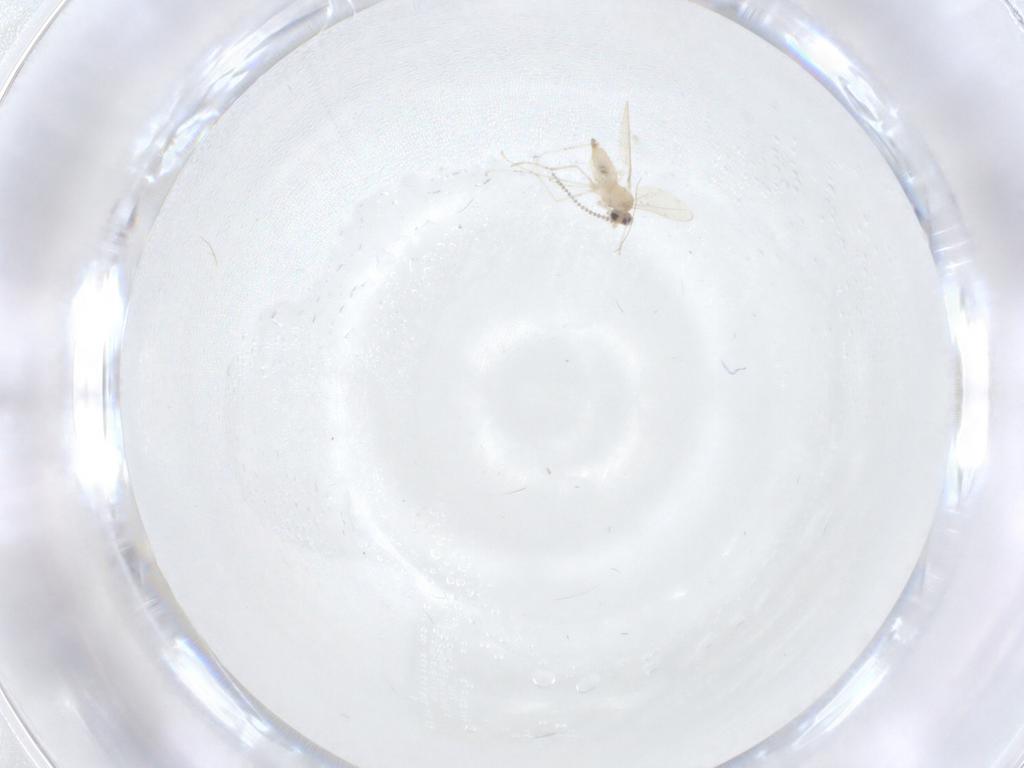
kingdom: Animalia
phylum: Arthropoda
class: Insecta
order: Diptera
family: Cecidomyiidae
